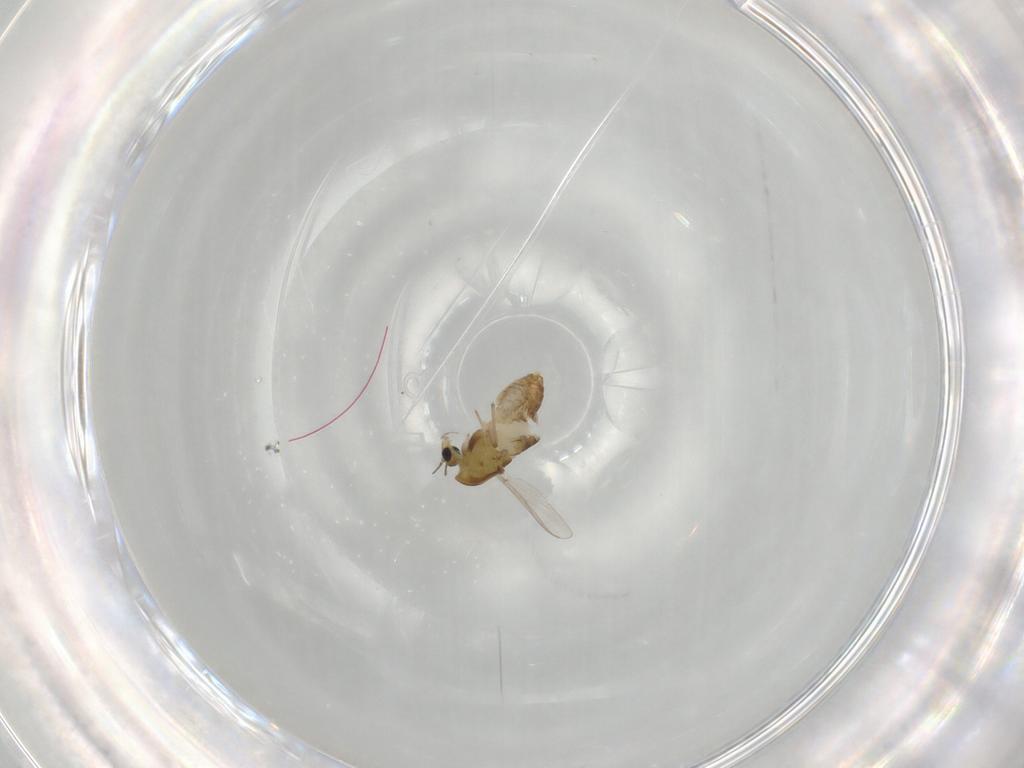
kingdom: Animalia
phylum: Arthropoda
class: Insecta
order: Diptera
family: Chironomidae
